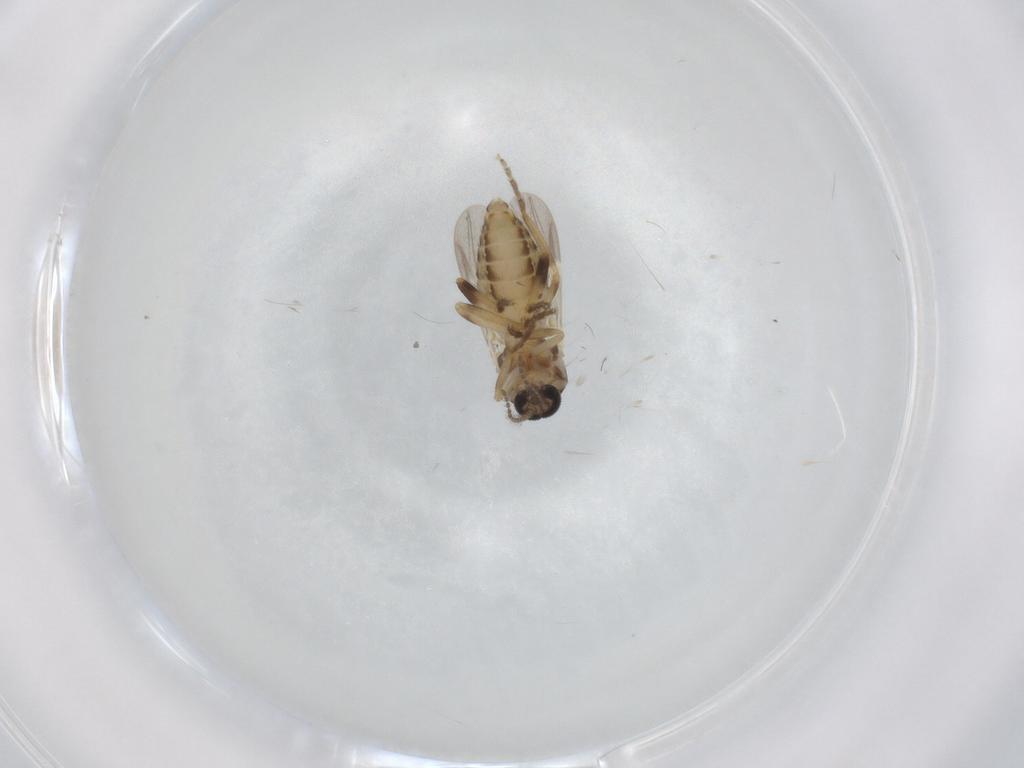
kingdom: Animalia
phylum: Arthropoda
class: Insecta
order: Diptera
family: Ceratopogonidae
